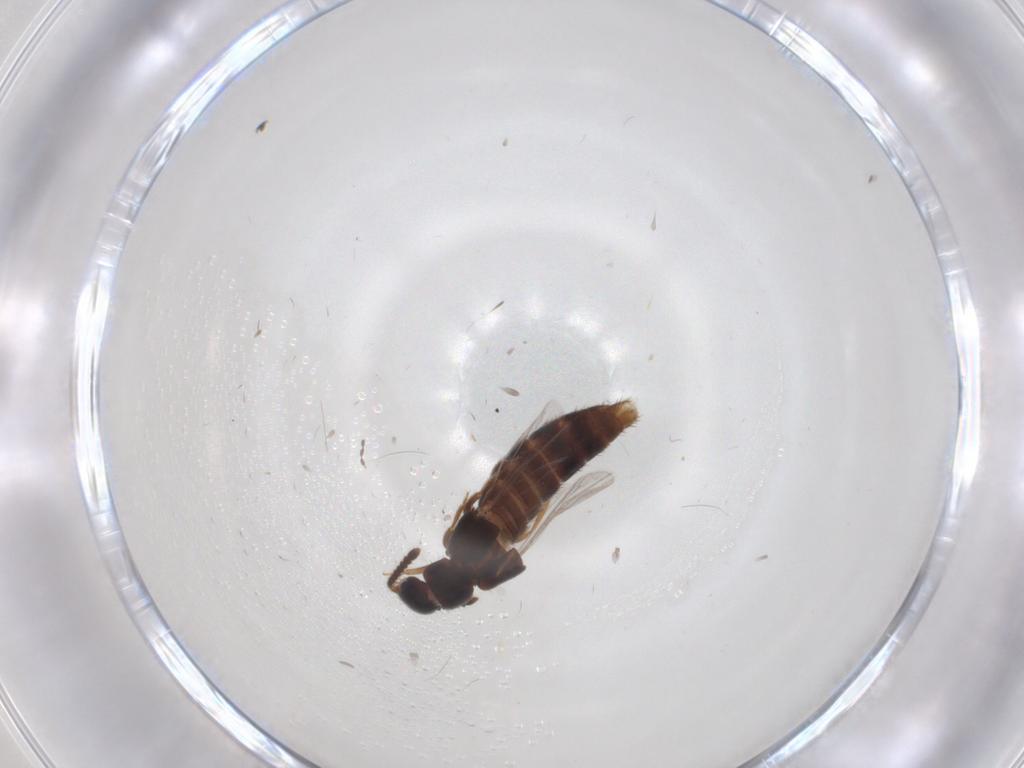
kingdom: Animalia
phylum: Arthropoda
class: Insecta
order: Coleoptera
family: Staphylinidae
